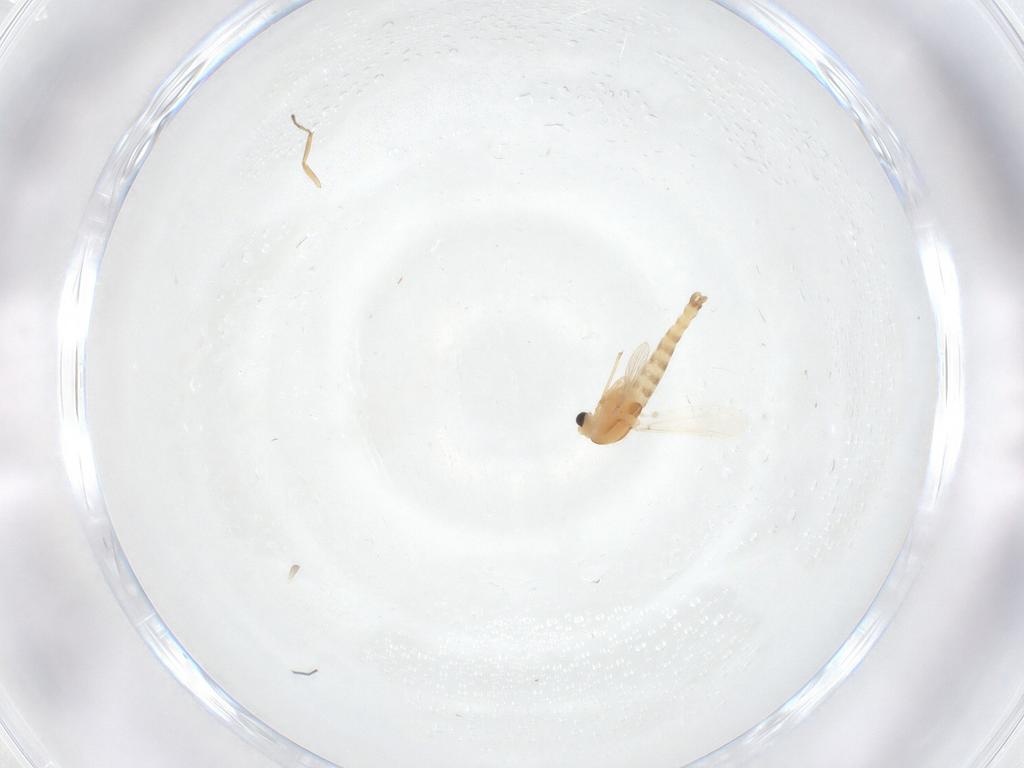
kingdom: Animalia
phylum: Arthropoda
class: Insecta
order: Diptera
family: Chironomidae
